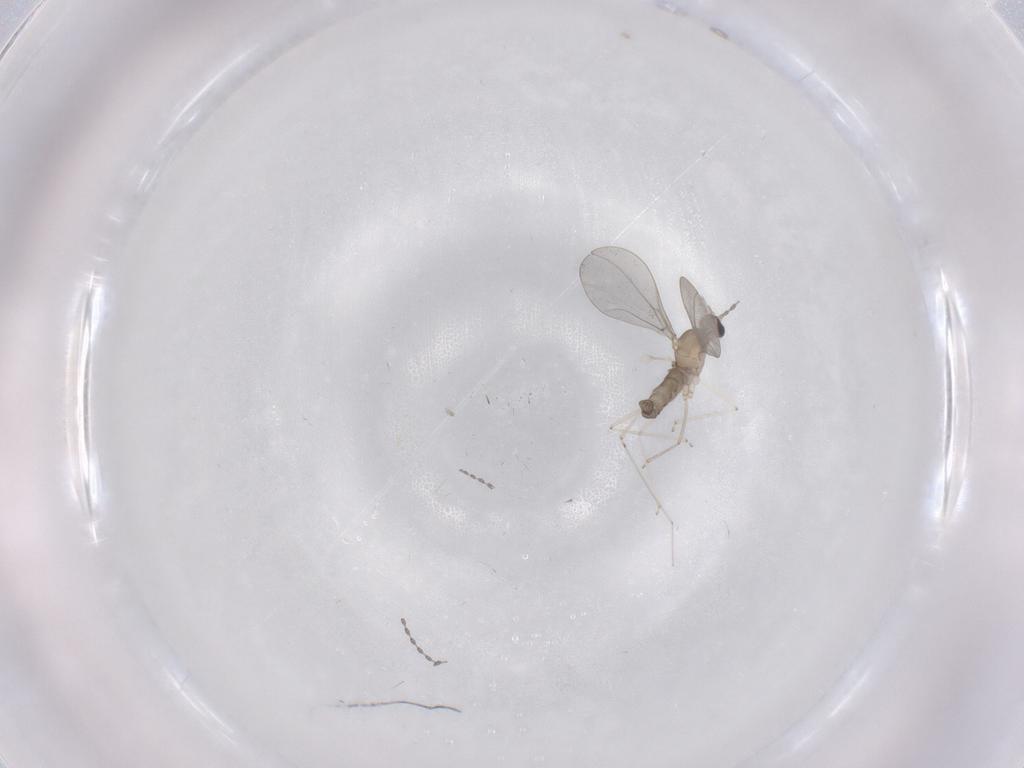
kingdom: Animalia
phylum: Arthropoda
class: Insecta
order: Diptera
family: Cecidomyiidae
